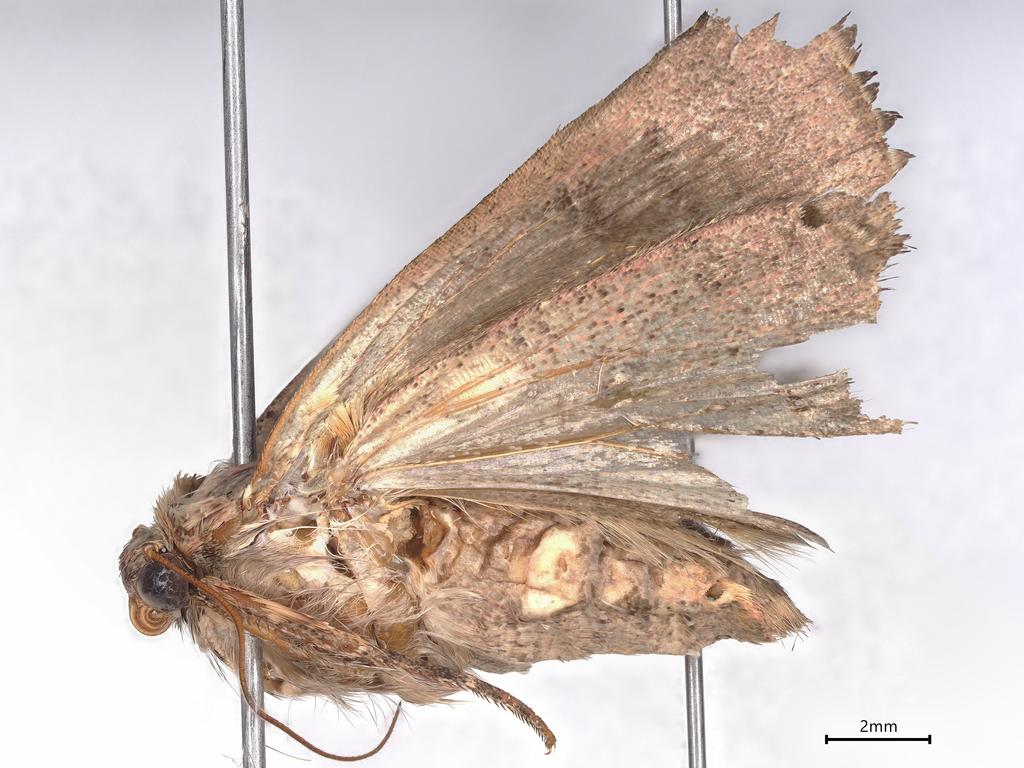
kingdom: Animalia
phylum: Arthropoda
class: Insecta
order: Diptera
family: Chironomidae
